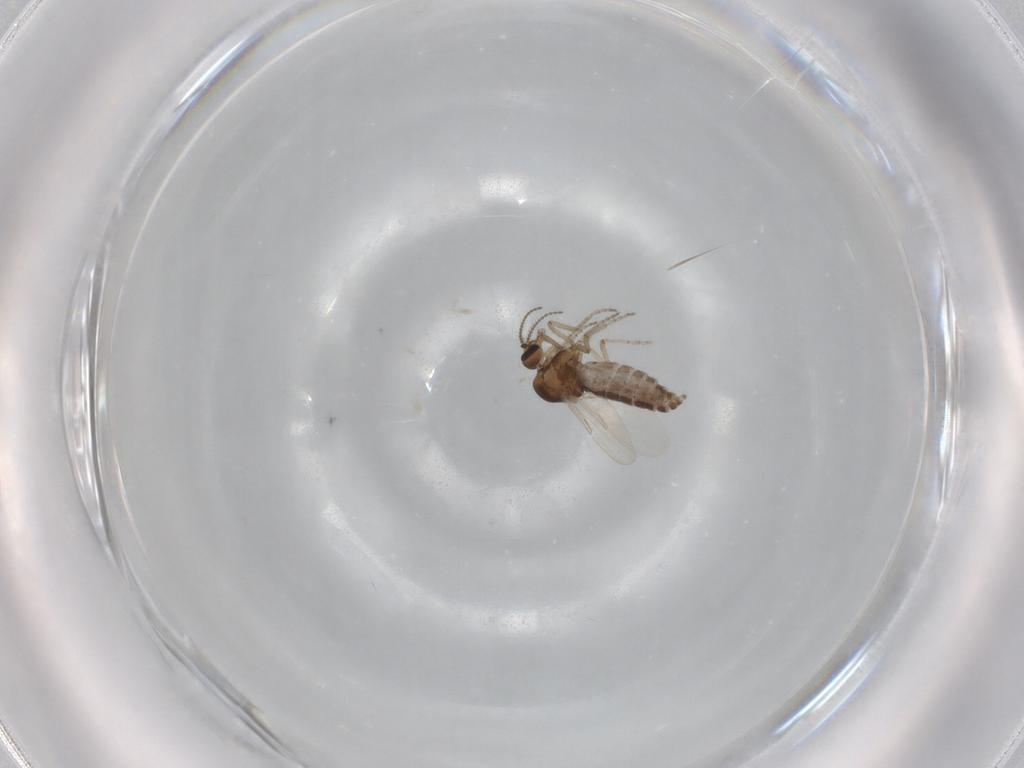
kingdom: Animalia
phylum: Arthropoda
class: Insecta
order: Diptera
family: Ceratopogonidae
